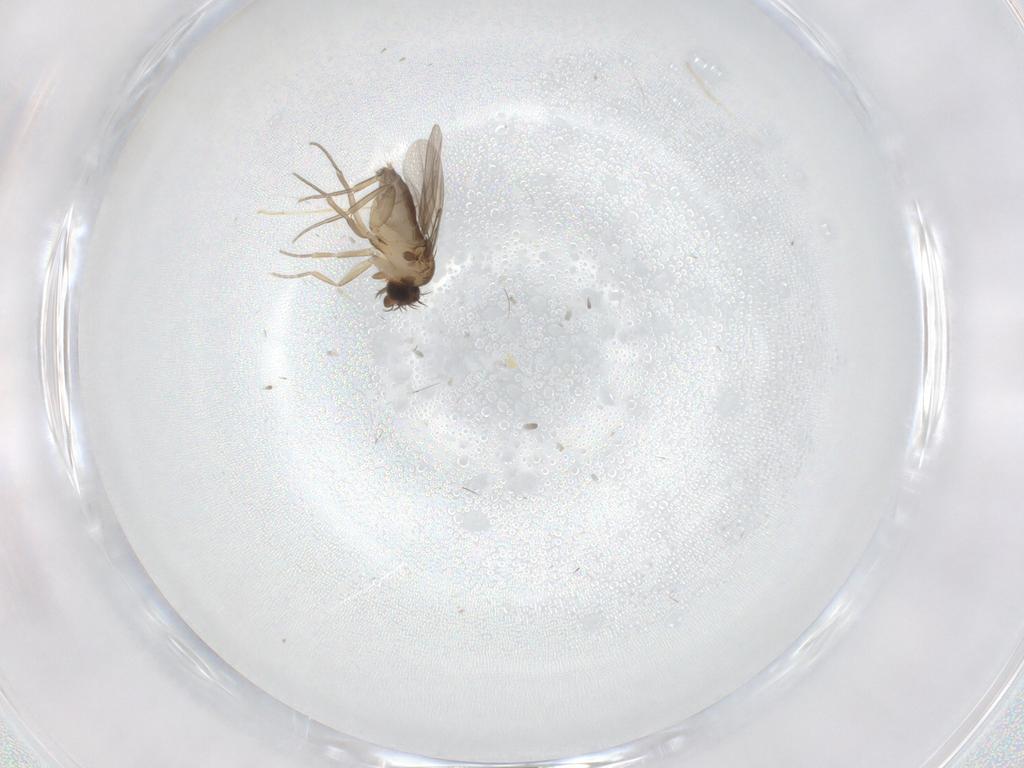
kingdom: Animalia
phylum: Arthropoda
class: Insecta
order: Diptera
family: Phoridae
